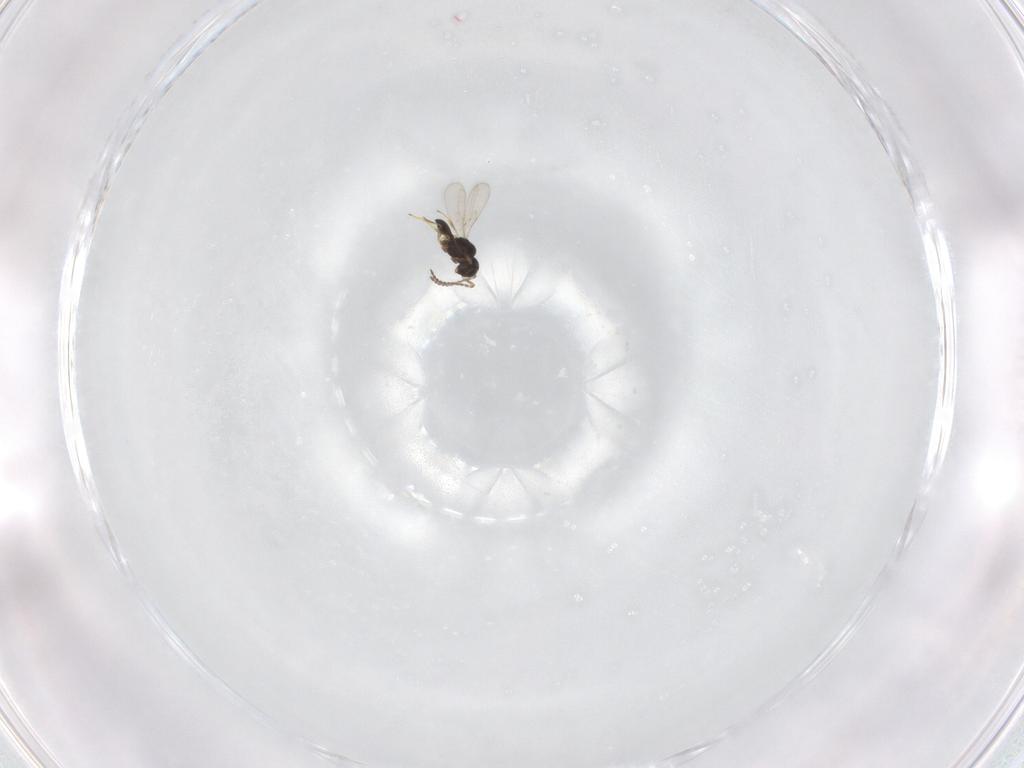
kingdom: Animalia
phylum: Arthropoda
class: Insecta
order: Hymenoptera
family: Scelionidae
